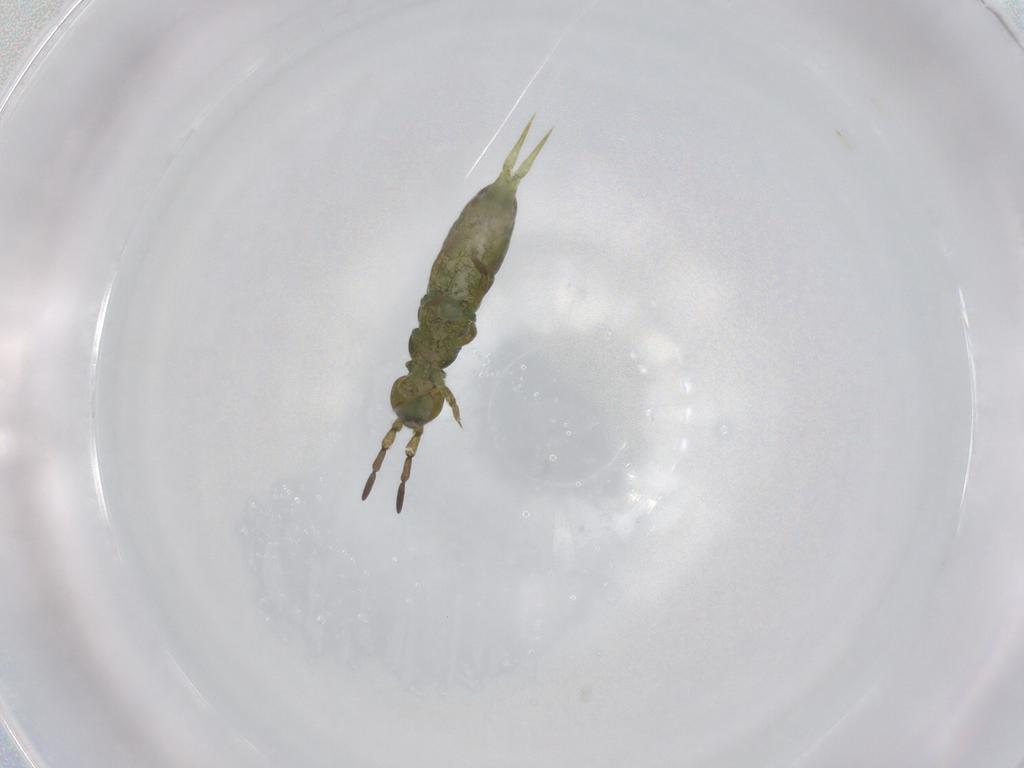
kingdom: Animalia
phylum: Arthropoda
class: Collembola
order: Entomobryomorpha
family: Isotomidae
